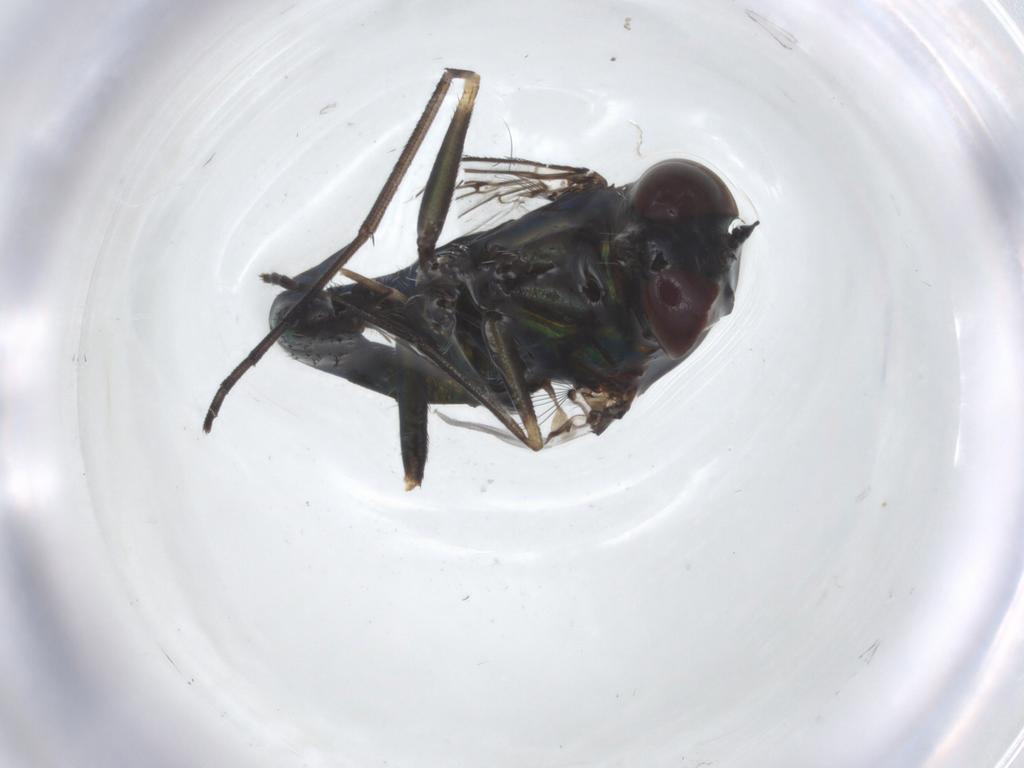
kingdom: Animalia
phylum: Arthropoda
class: Insecta
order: Diptera
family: Dolichopodidae
